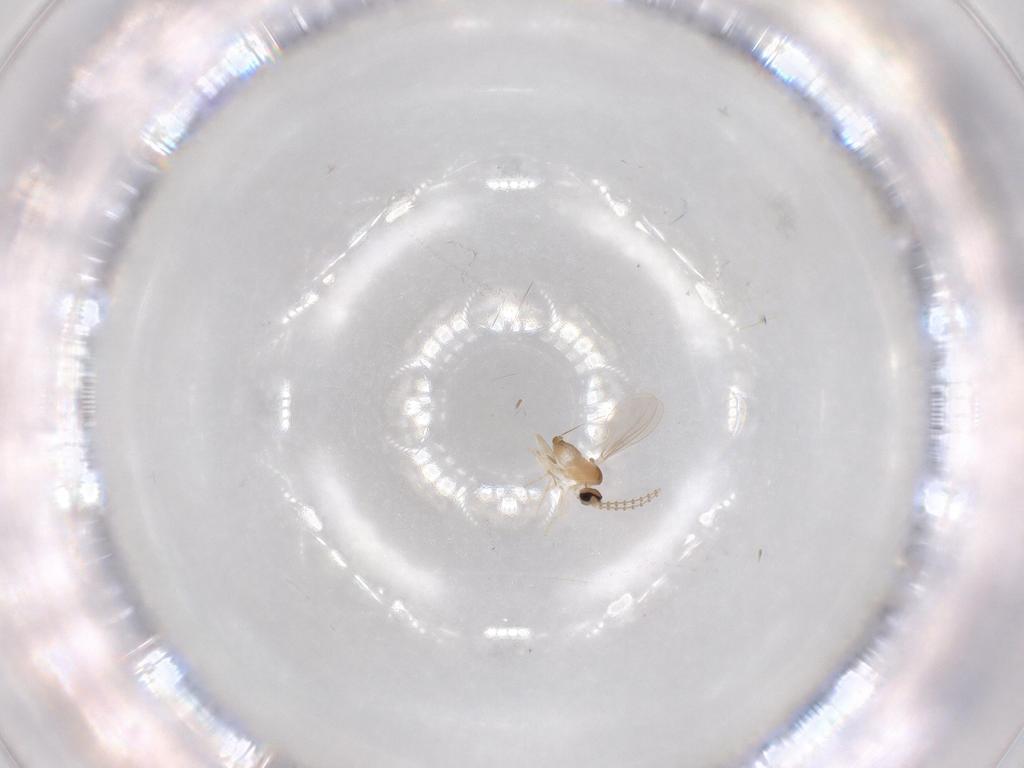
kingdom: Animalia
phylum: Arthropoda
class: Insecta
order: Diptera
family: Cecidomyiidae
